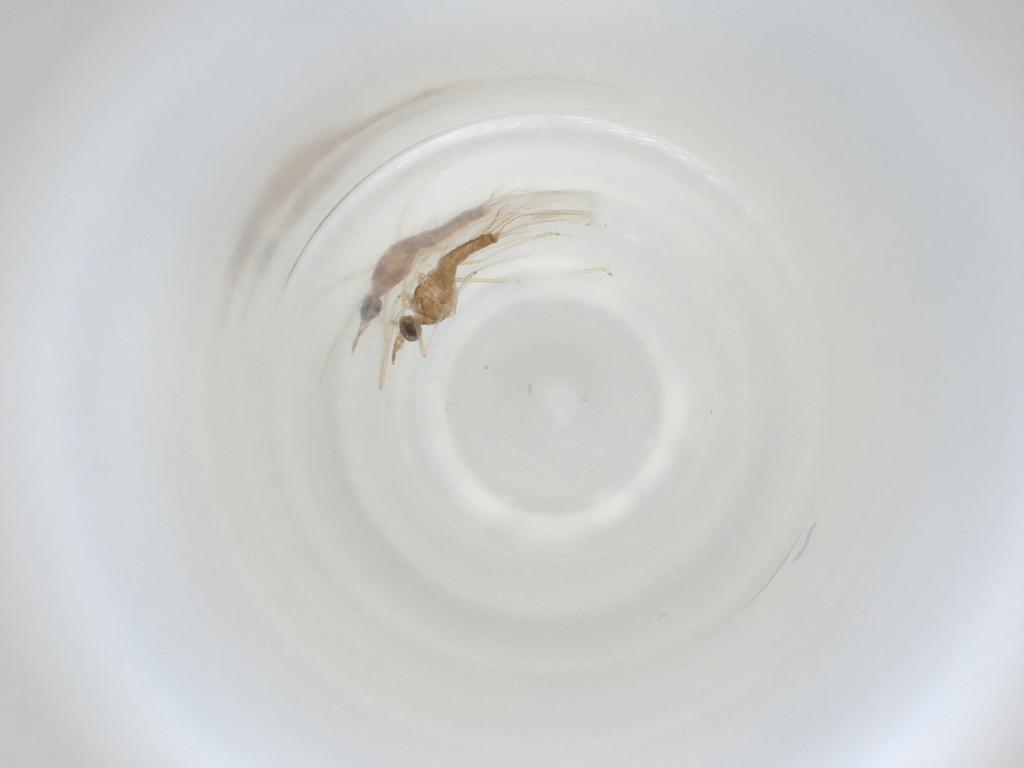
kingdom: Animalia
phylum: Arthropoda
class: Insecta
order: Diptera
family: Cecidomyiidae
